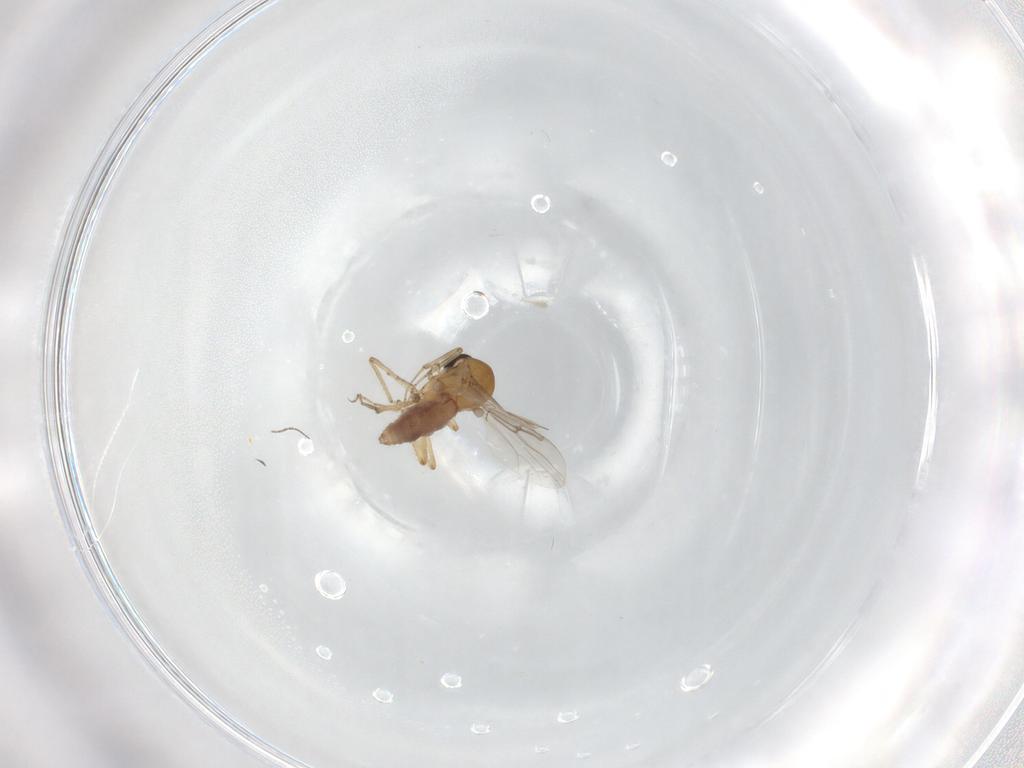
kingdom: Animalia
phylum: Arthropoda
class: Insecta
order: Diptera
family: Ceratopogonidae
